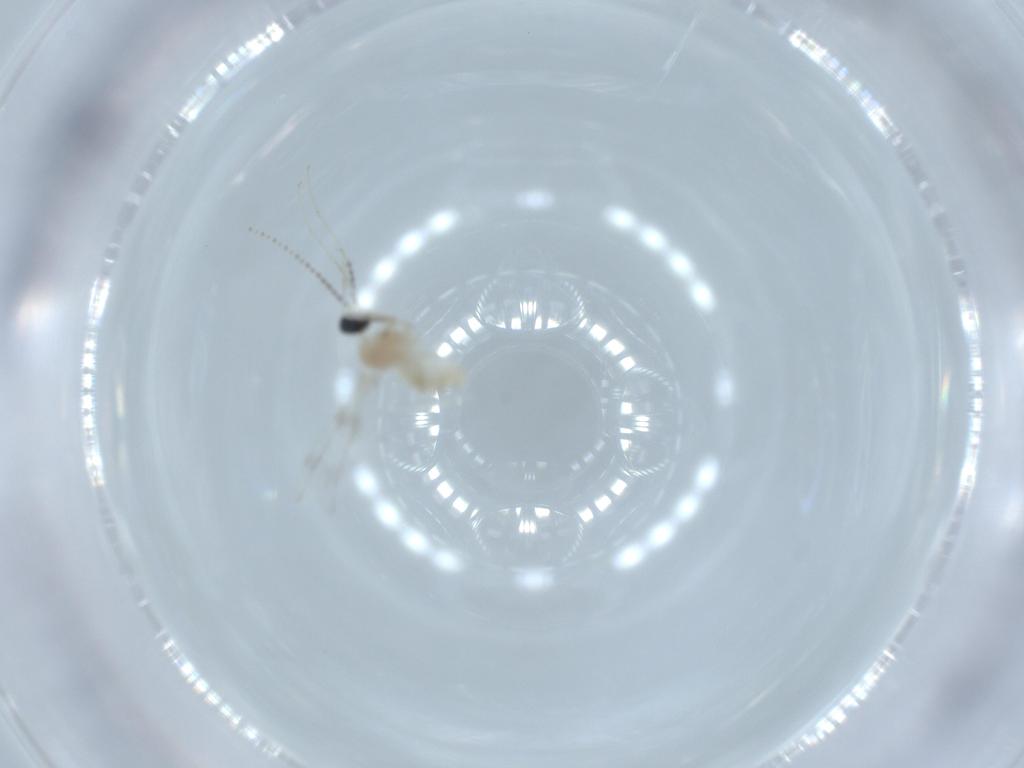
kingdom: Animalia
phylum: Arthropoda
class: Insecta
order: Diptera
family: Cecidomyiidae
